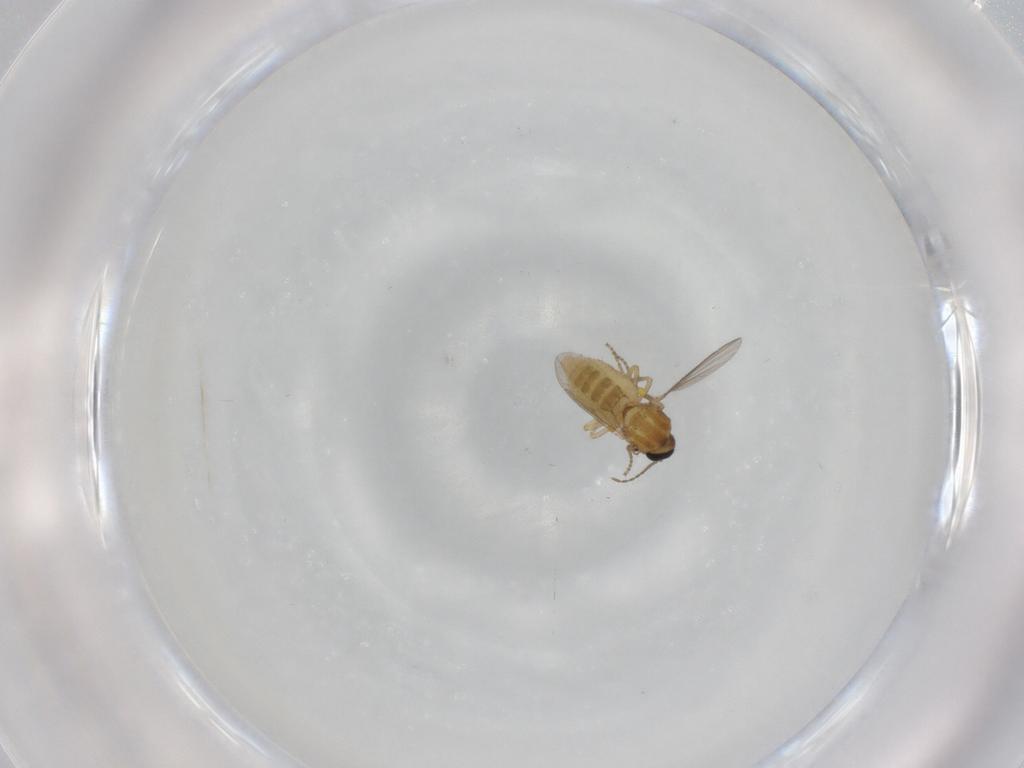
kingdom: Animalia
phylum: Arthropoda
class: Insecta
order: Diptera
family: Ceratopogonidae
